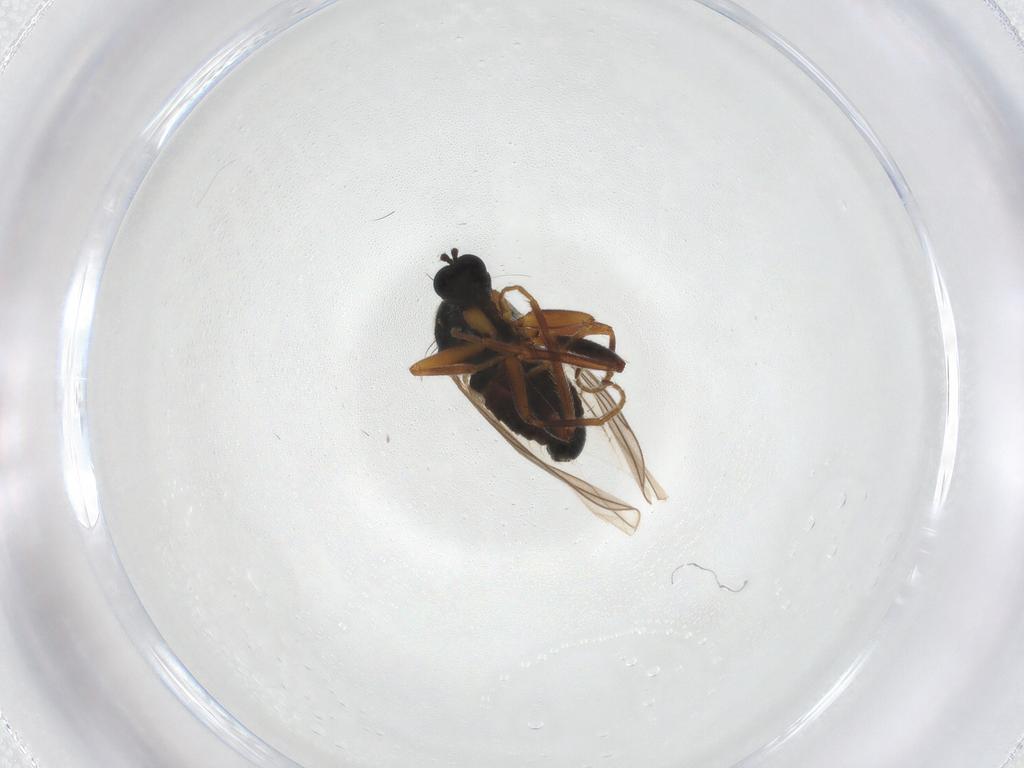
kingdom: Animalia
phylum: Arthropoda
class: Insecta
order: Diptera
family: Hybotidae
